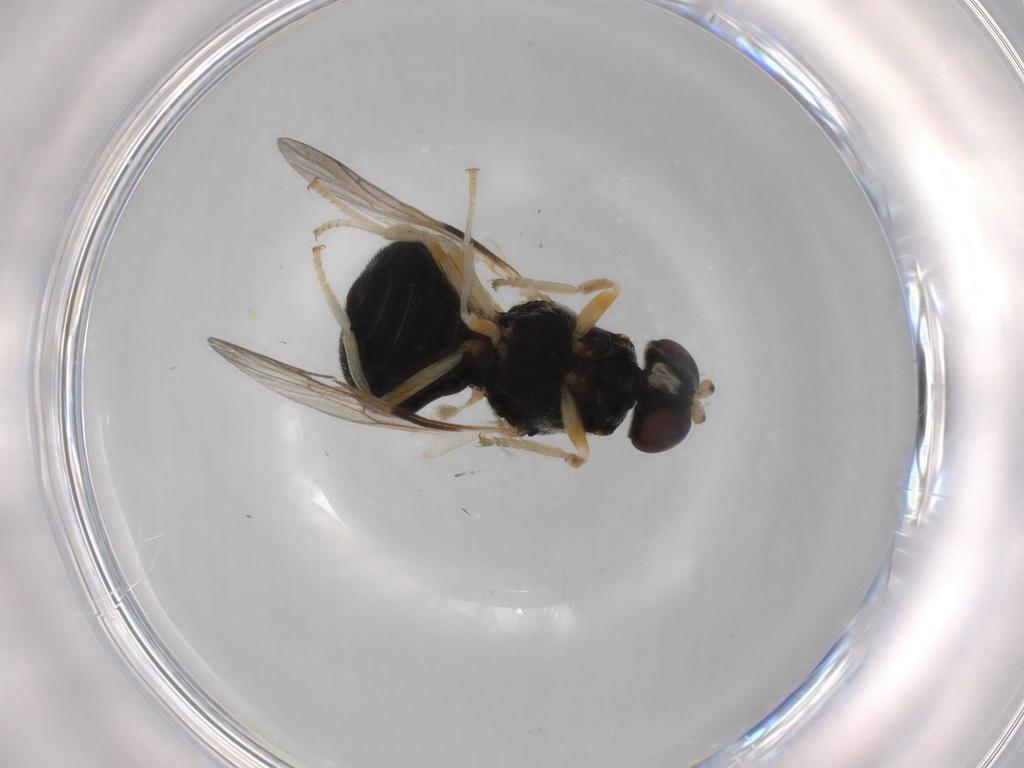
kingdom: Animalia
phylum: Arthropoda
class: Insecta
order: Diptera
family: Stratiomyidae
